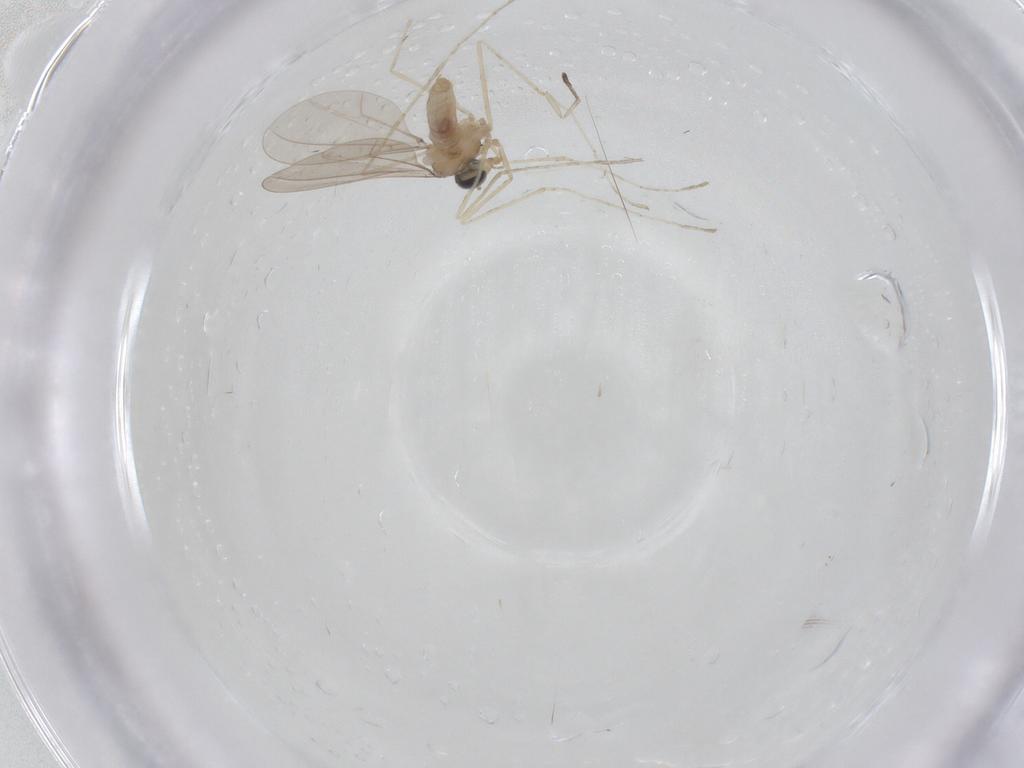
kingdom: Animalia
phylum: Arthropoda
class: Insecta
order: Diptera
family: Cecidomyiidae
